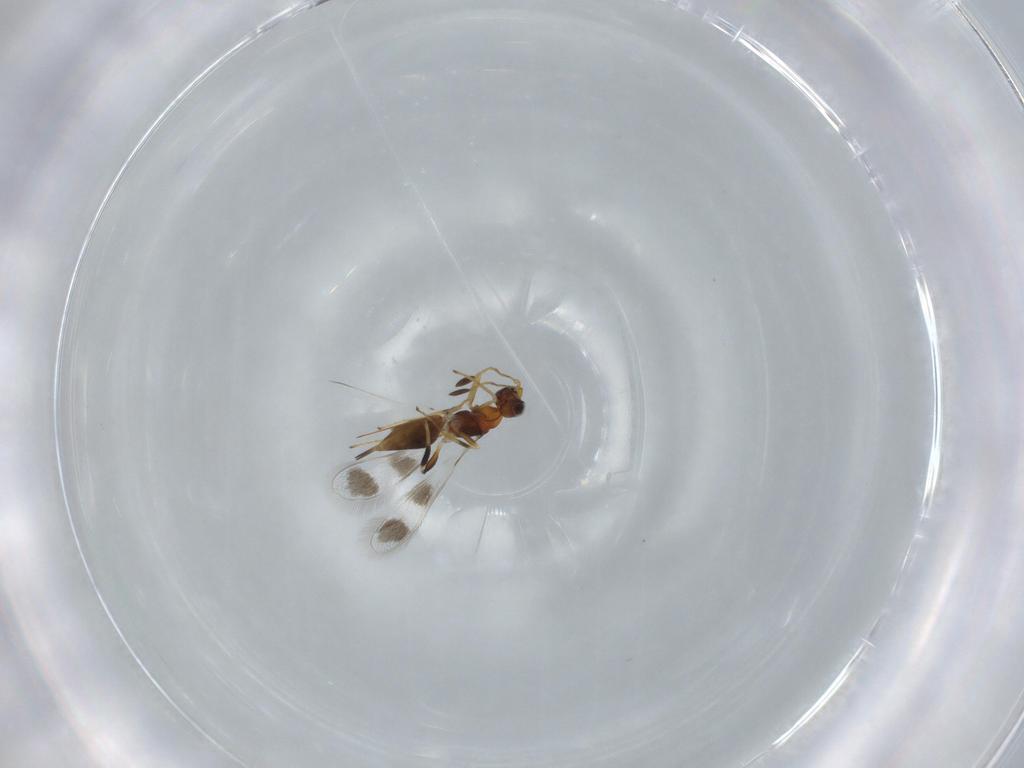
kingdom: Animalia
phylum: Arthropoda
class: Insecta
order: Hymenoptera
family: Mymaridae
